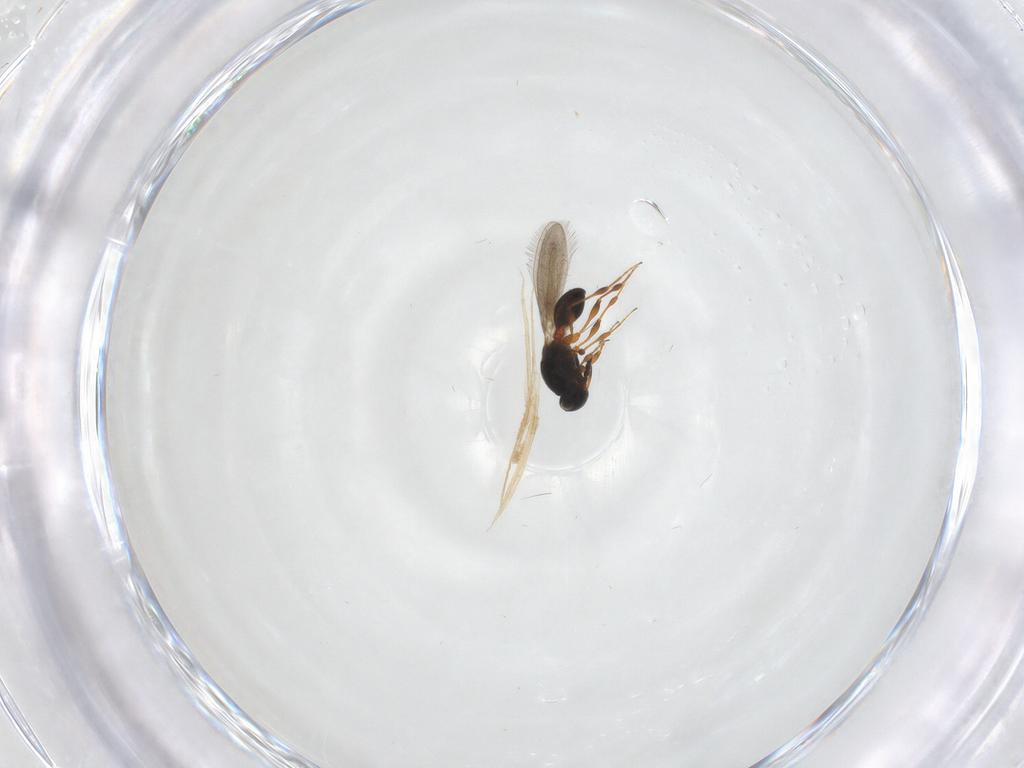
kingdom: Animalia
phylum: Arthropoda
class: Insecta
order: Hymenoptera
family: Platygastridae
